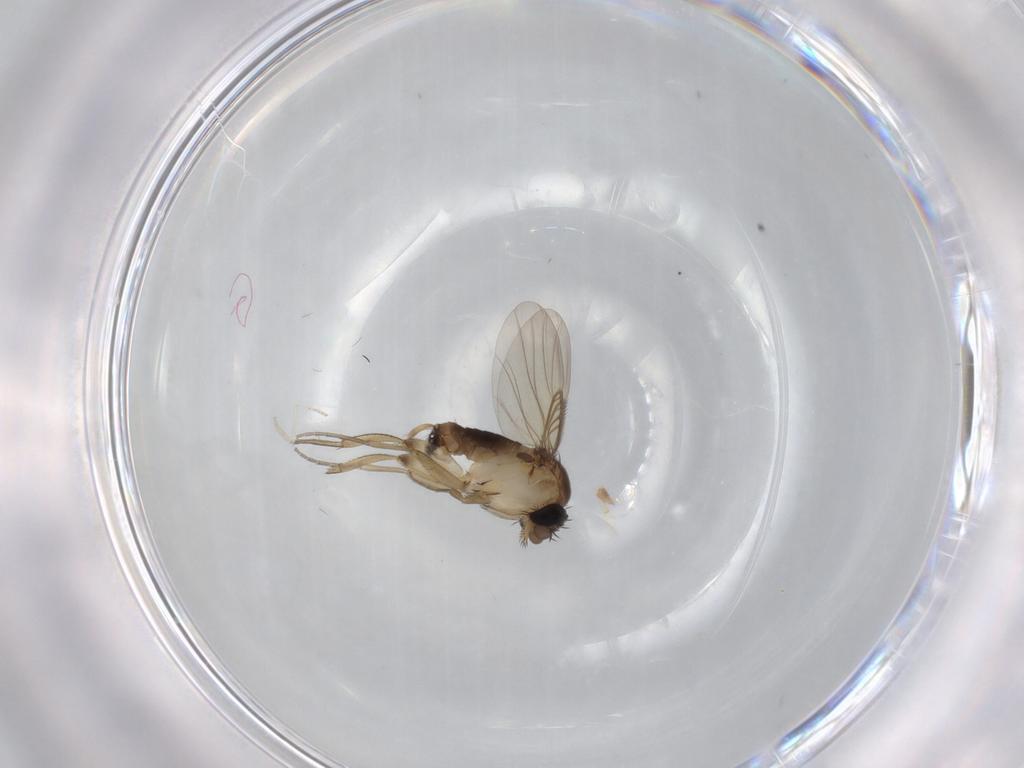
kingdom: Animalia
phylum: Arthropoda
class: Insecta
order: Diptera
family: Phoridae
